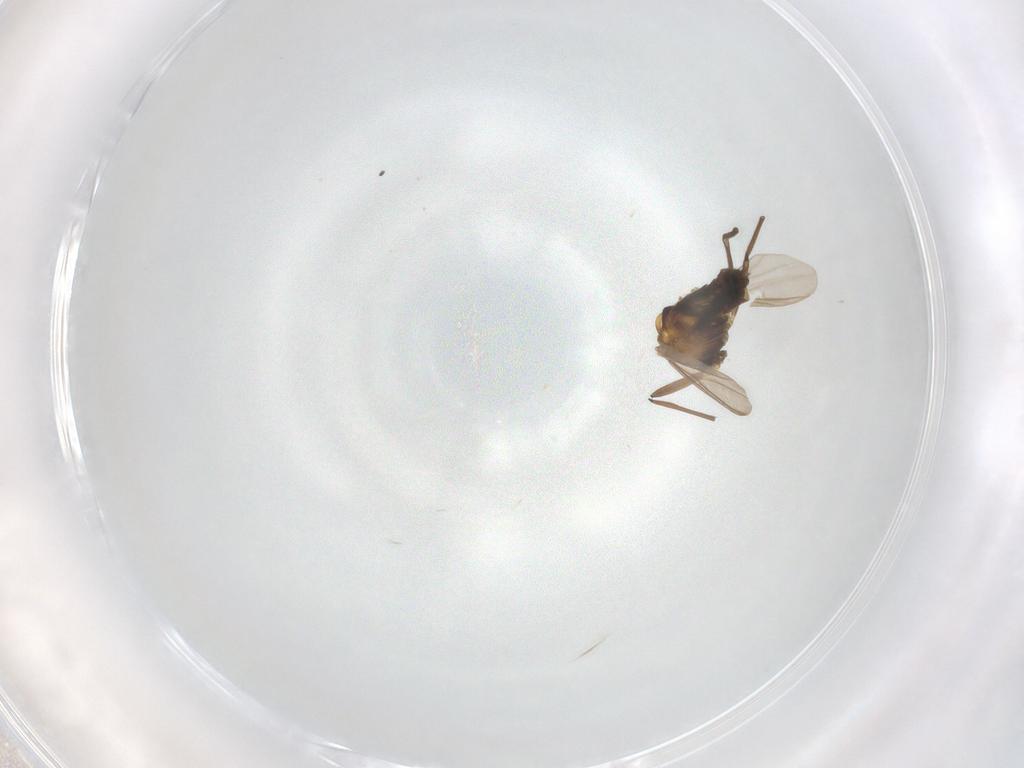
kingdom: Animalia
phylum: Arthropoda
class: Insecta
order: Diptera
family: Chironomidae
